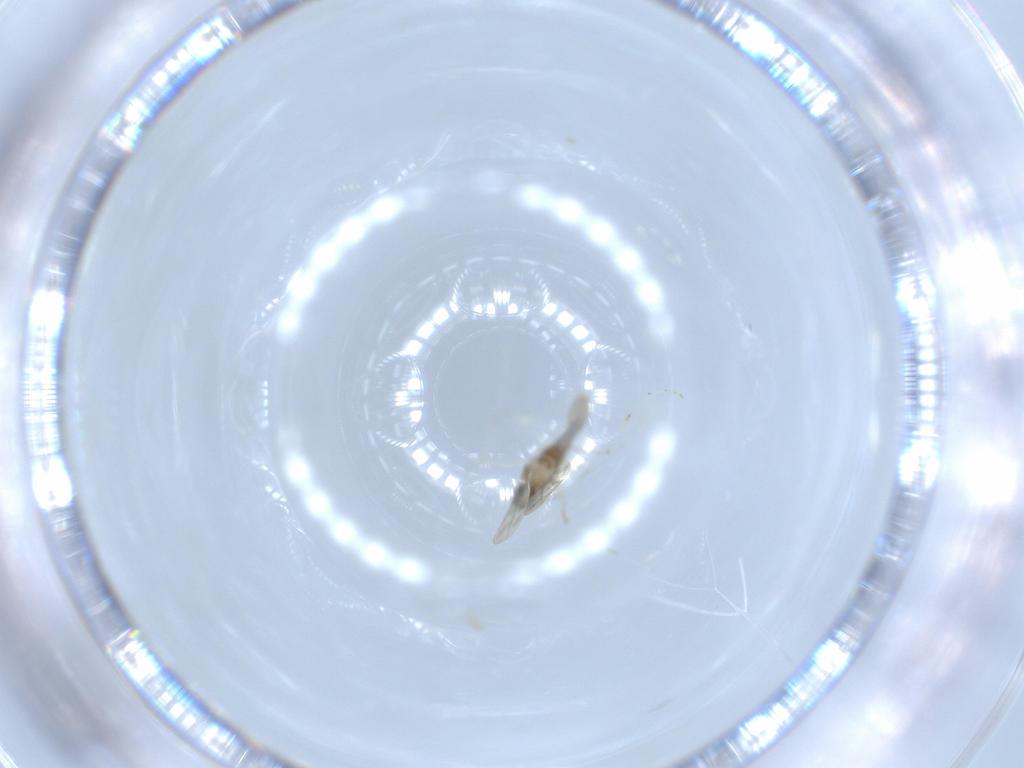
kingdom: Animalia
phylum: Arthropoda
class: Insecta
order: Diptera
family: Cecidomyiidae
